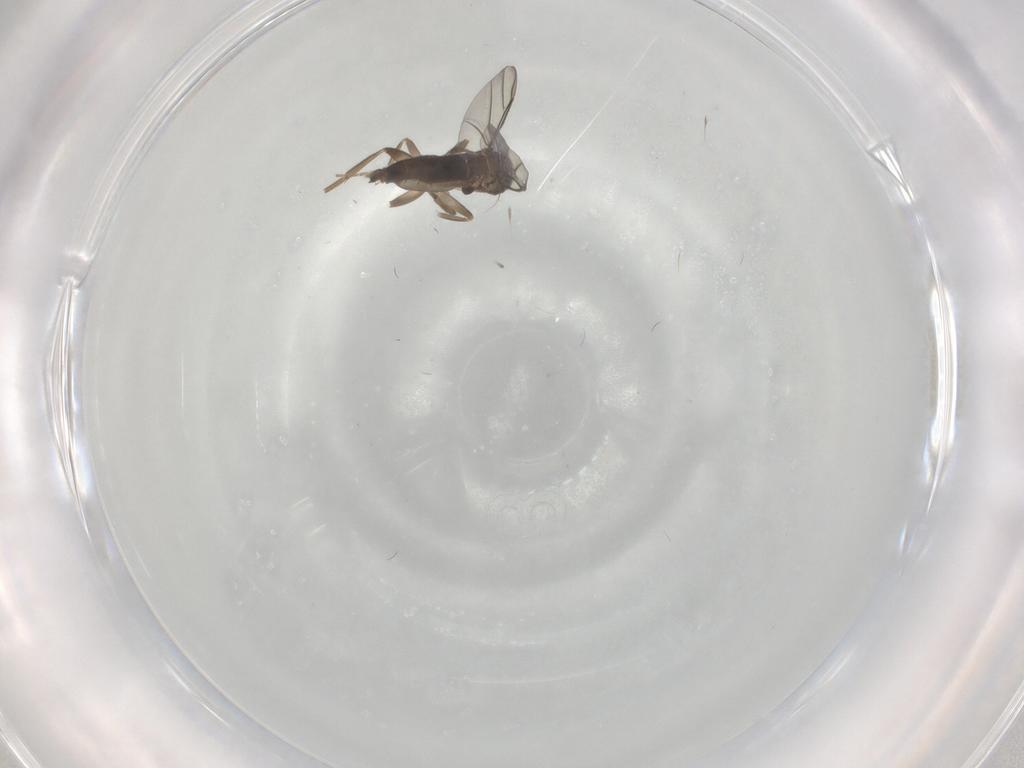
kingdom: Animalia
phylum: Arthropoda
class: Insecta
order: Diptera
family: Phoridae
